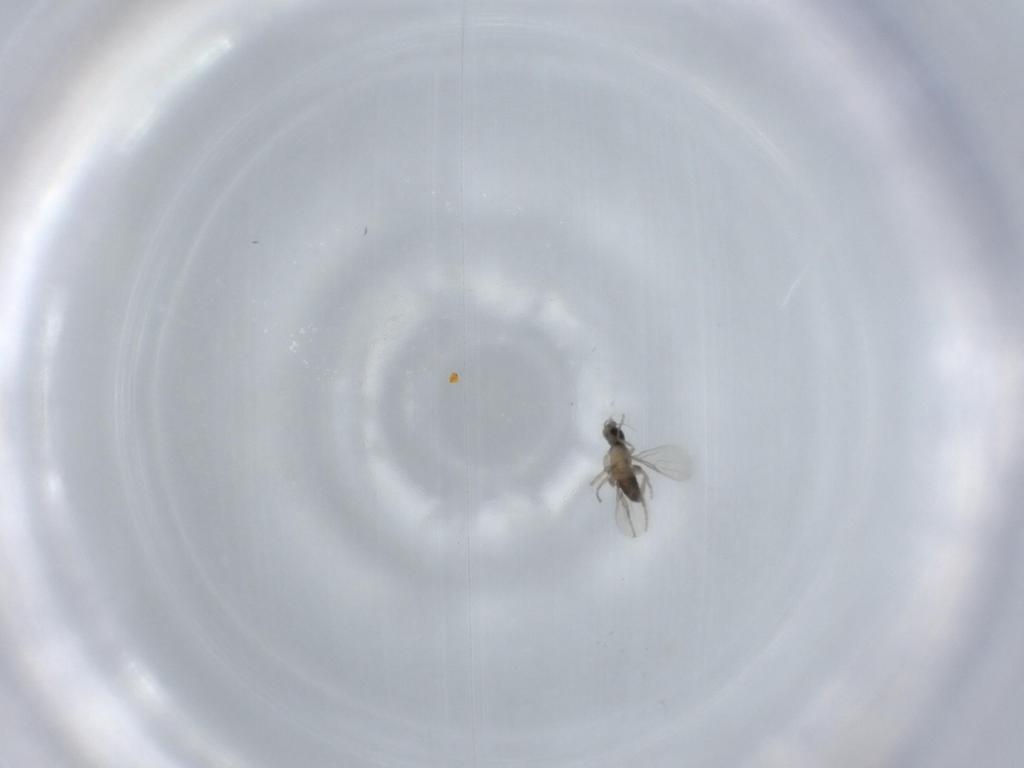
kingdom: Animalia
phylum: Arthropoda
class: Insecta
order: Diptera
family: Phoridae
